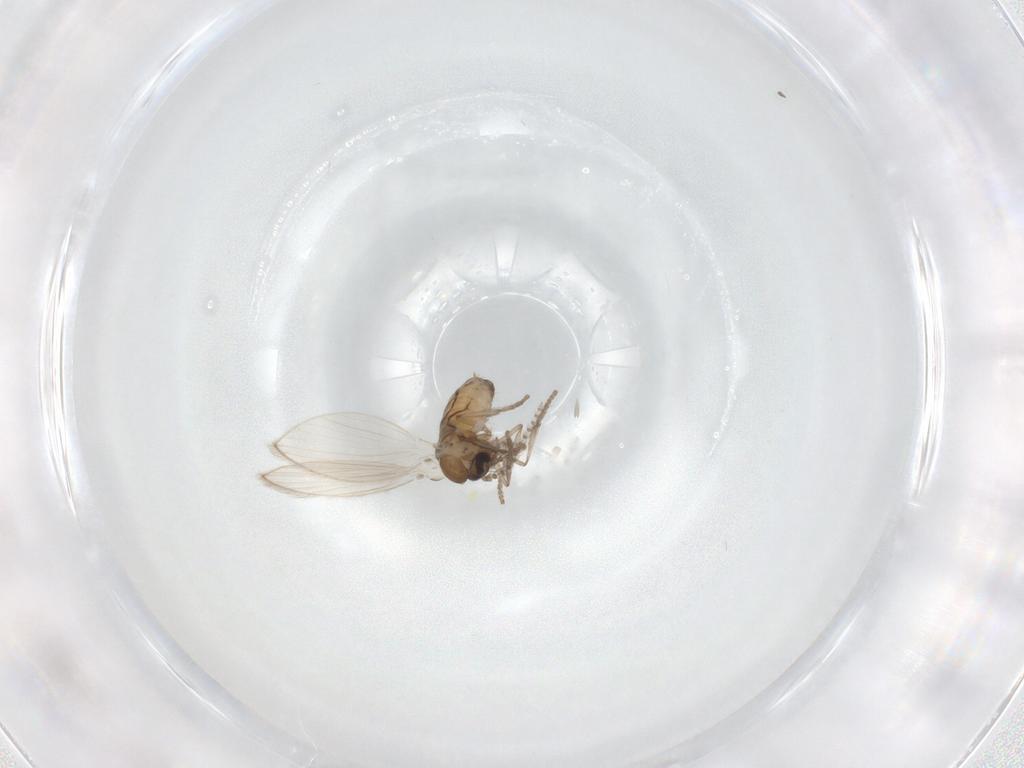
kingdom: Animalia
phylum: Arthropoda
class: Insecta
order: Diptera
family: Psychodidae
